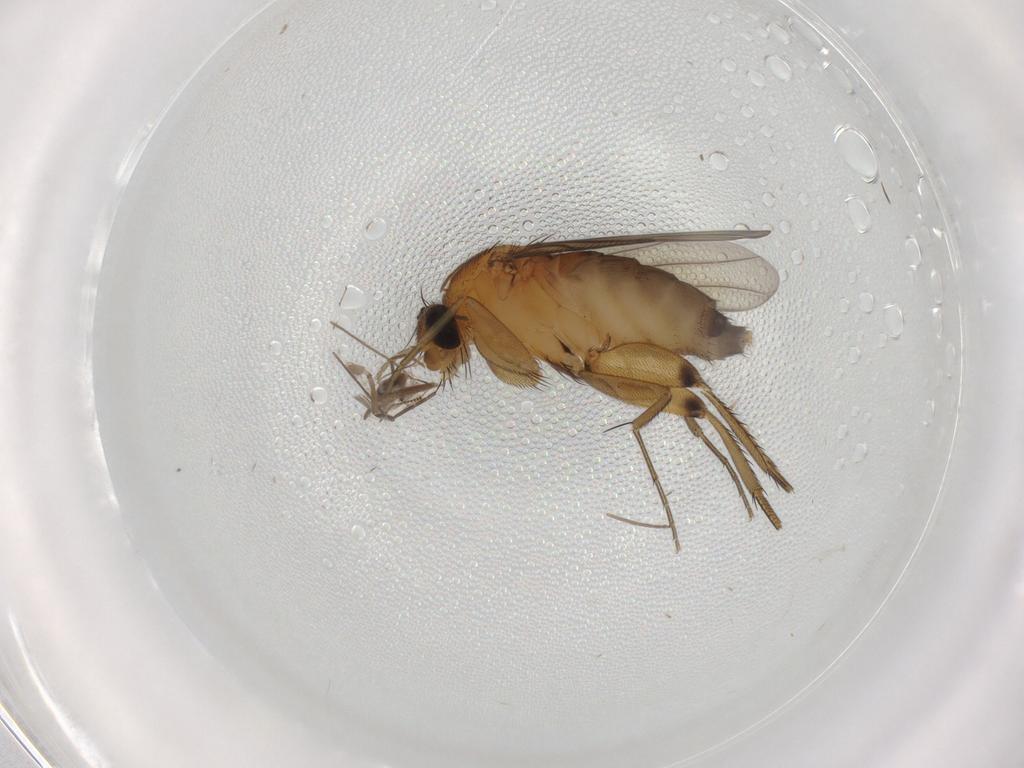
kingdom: Animalia
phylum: Arthropoda
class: Insecta
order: Diptera
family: Phoridae
